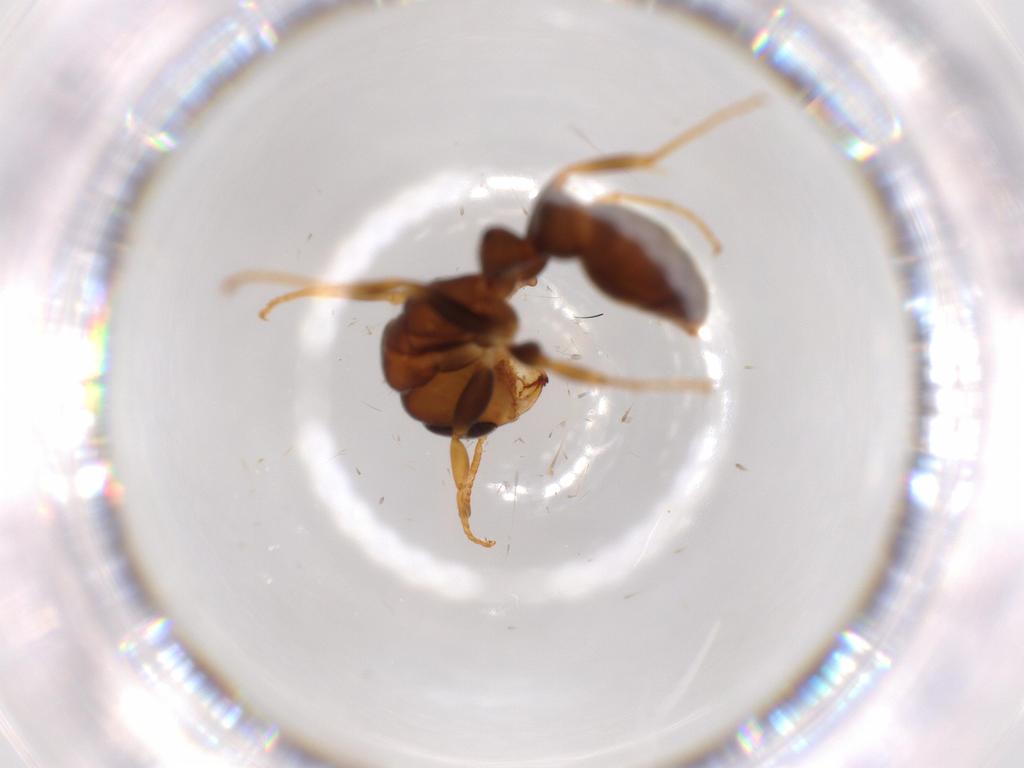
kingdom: Animalia
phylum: Arthropoda
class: Insecta
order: Hymenoptera
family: Formicidae
